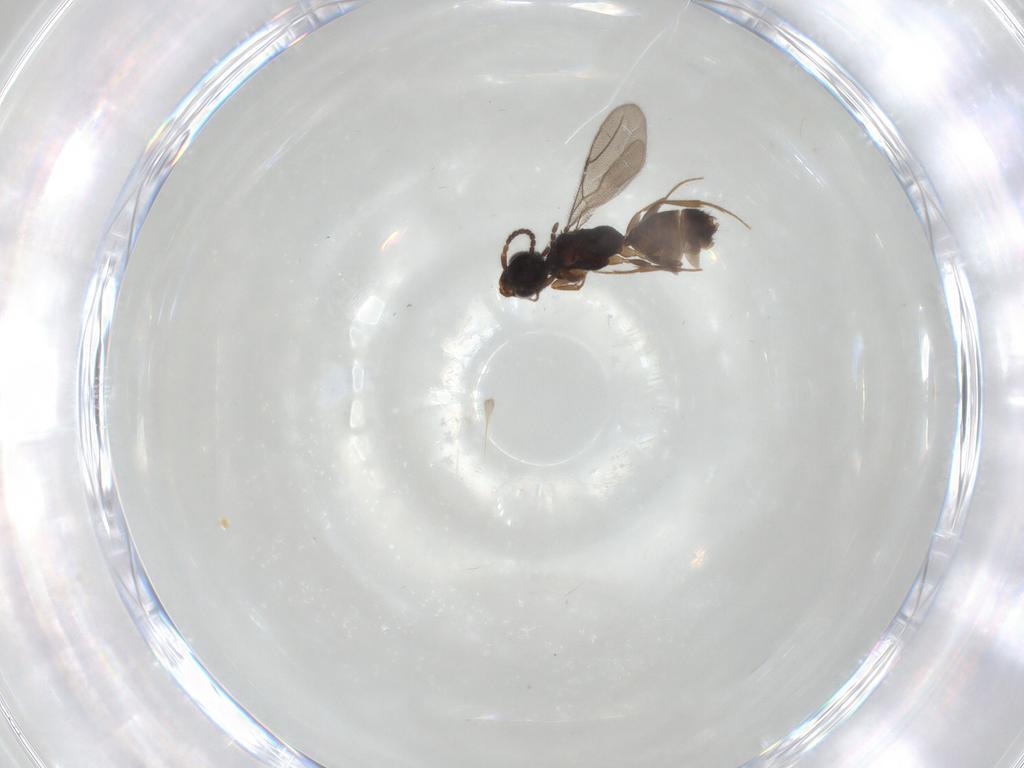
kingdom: Animalia
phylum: Arthropoda
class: Insecta
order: Hymenoptera
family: Bethylidae
